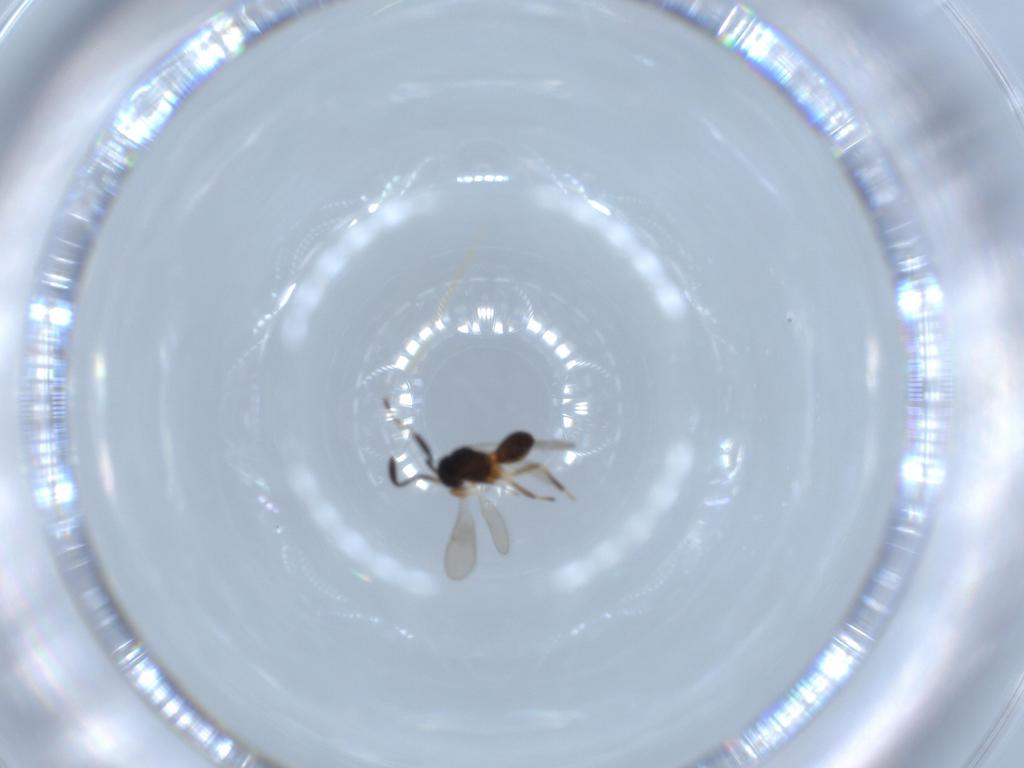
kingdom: Animalia
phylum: Arthropoda
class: Insecta
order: Hymenoptera
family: Scelionidae
